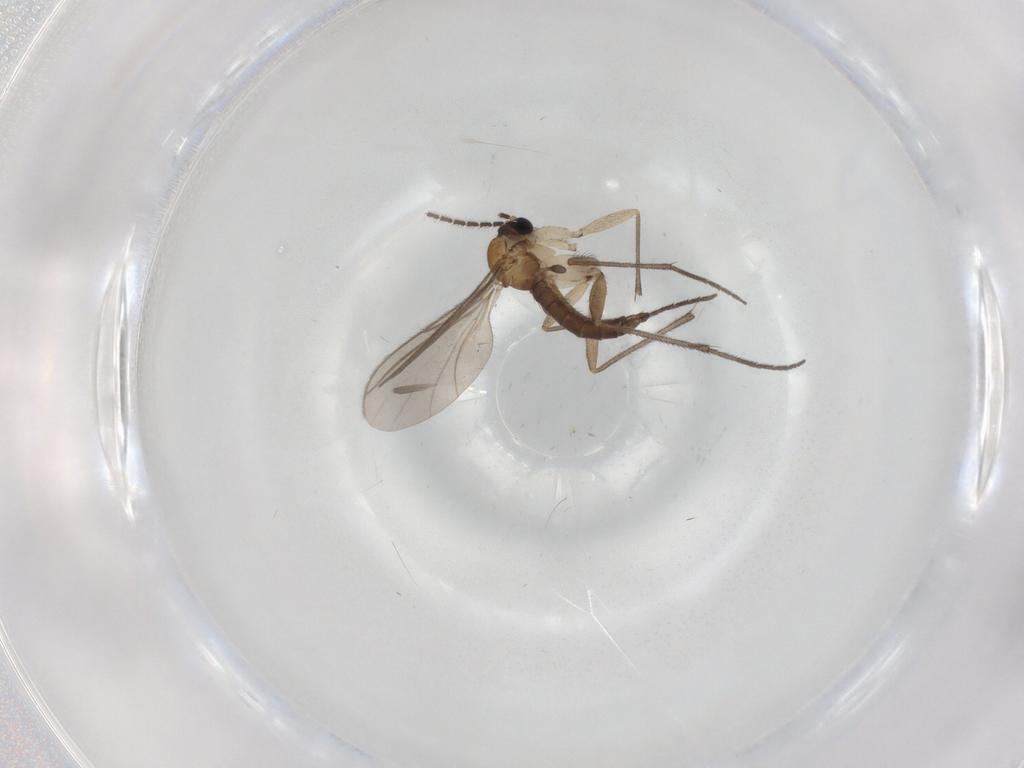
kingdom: Animalia
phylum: Arthropoda
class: Insecta
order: Diptera
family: Sciaridae
